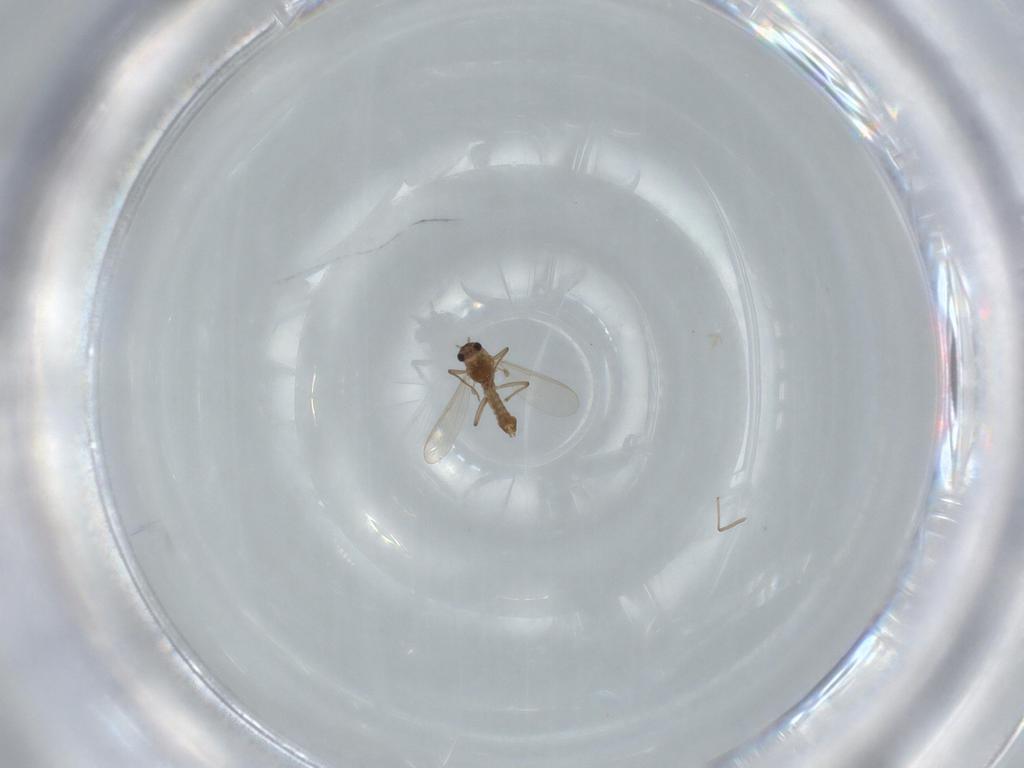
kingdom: Animalia
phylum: Arthropoda
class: Insecta
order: Diptera
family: Chironomidae
